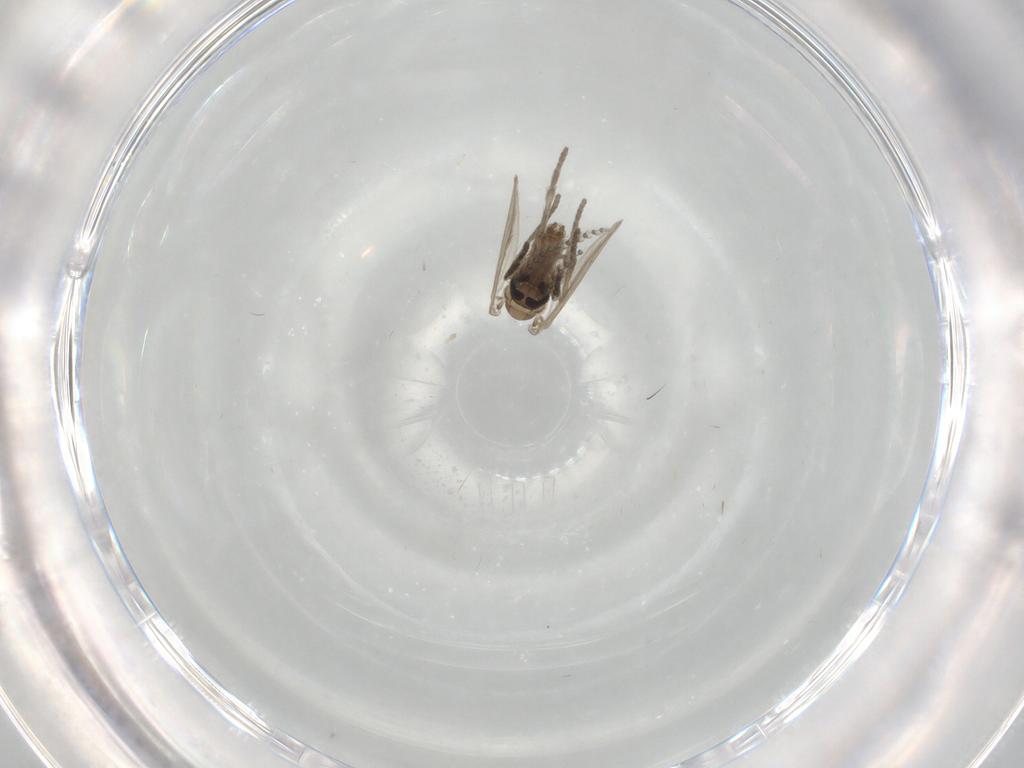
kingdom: Animalia
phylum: Arthropoda
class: Insecta
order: Diptera
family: Psychodidae
